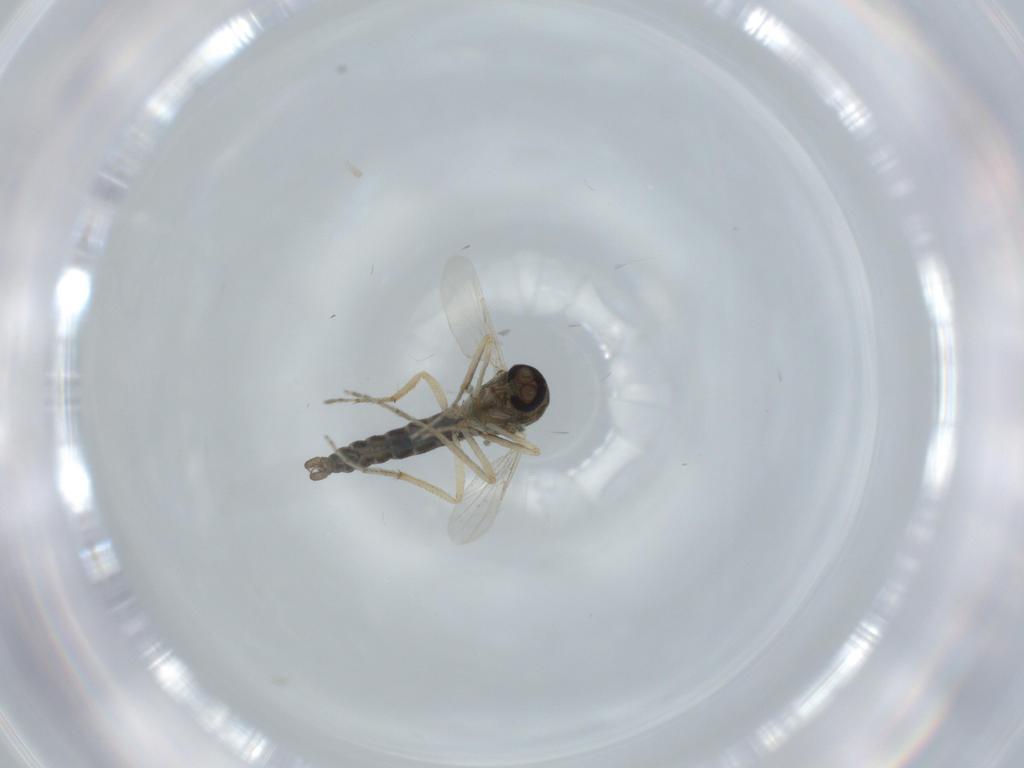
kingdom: Animalia
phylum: Arthropoda
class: Insecta
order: Diptera
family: Ceratopogonidae
